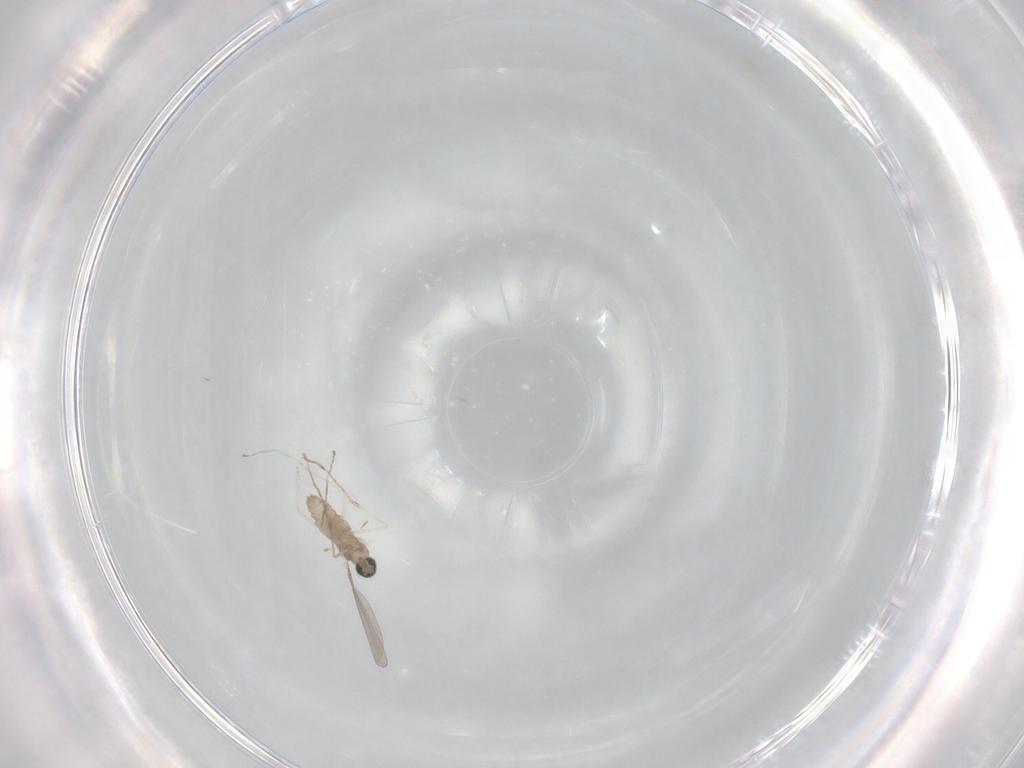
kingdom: Animalia
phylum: Arthropoda
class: Insecta
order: Diptera
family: Cecidomyiidae
